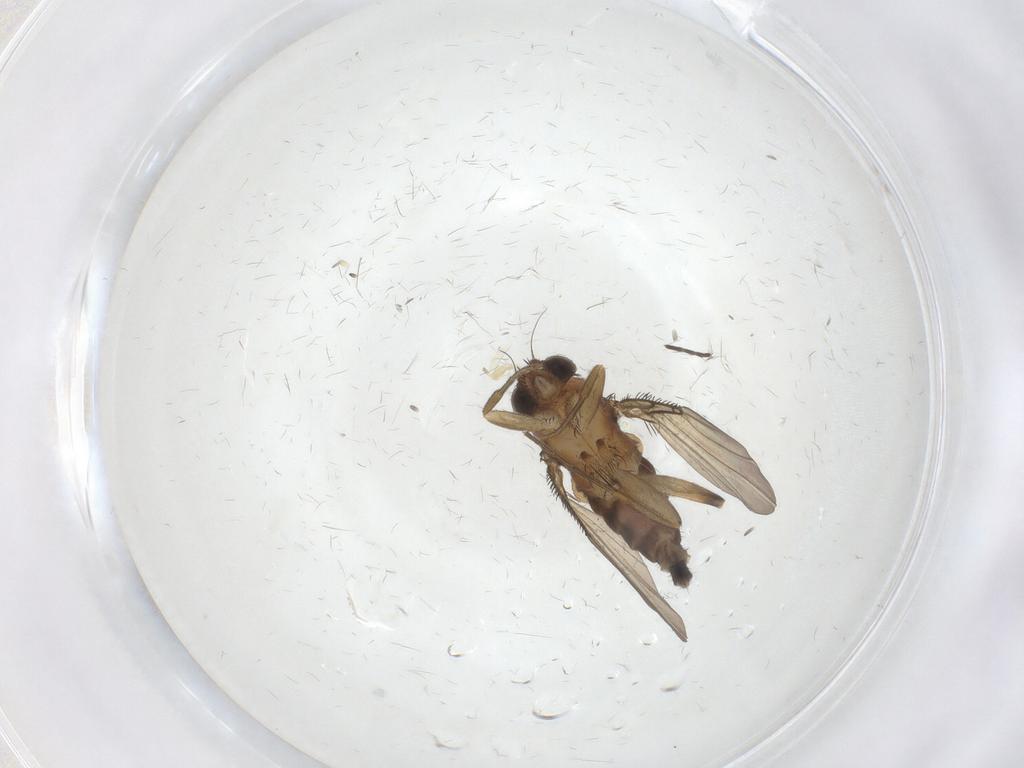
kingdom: Animalia
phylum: Arthropoda
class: Insecta
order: Diptera
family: Phoridae
